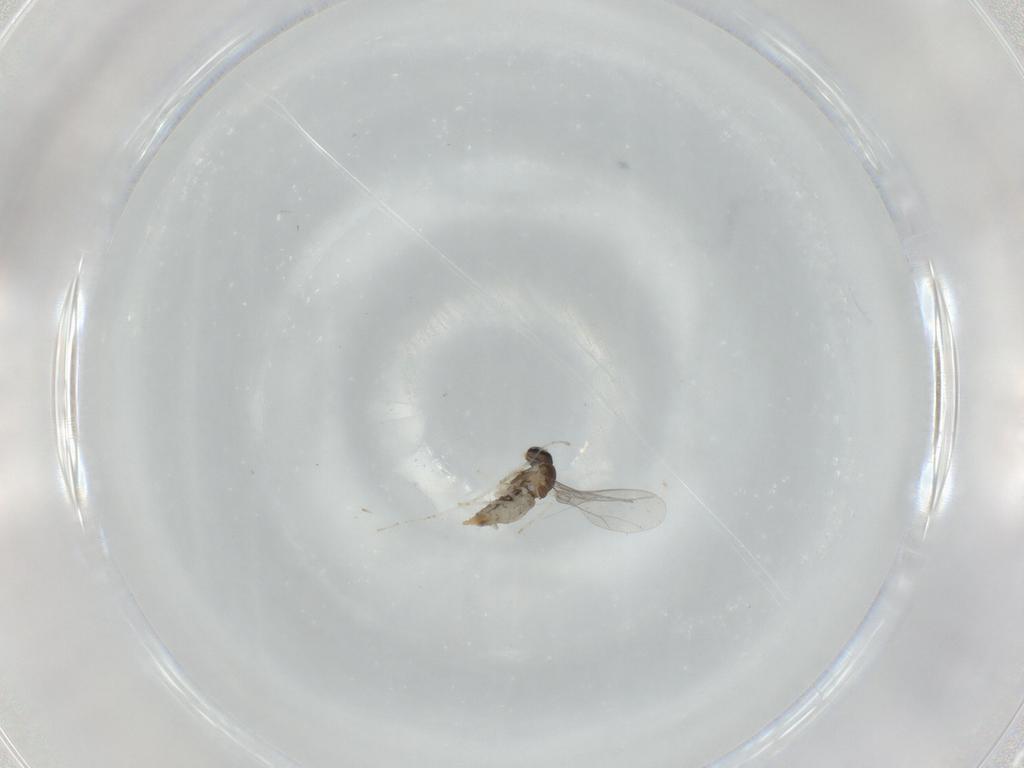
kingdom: Animalia
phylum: Arthropoda
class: Insecta
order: Diptera
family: Cecidomyiidae
